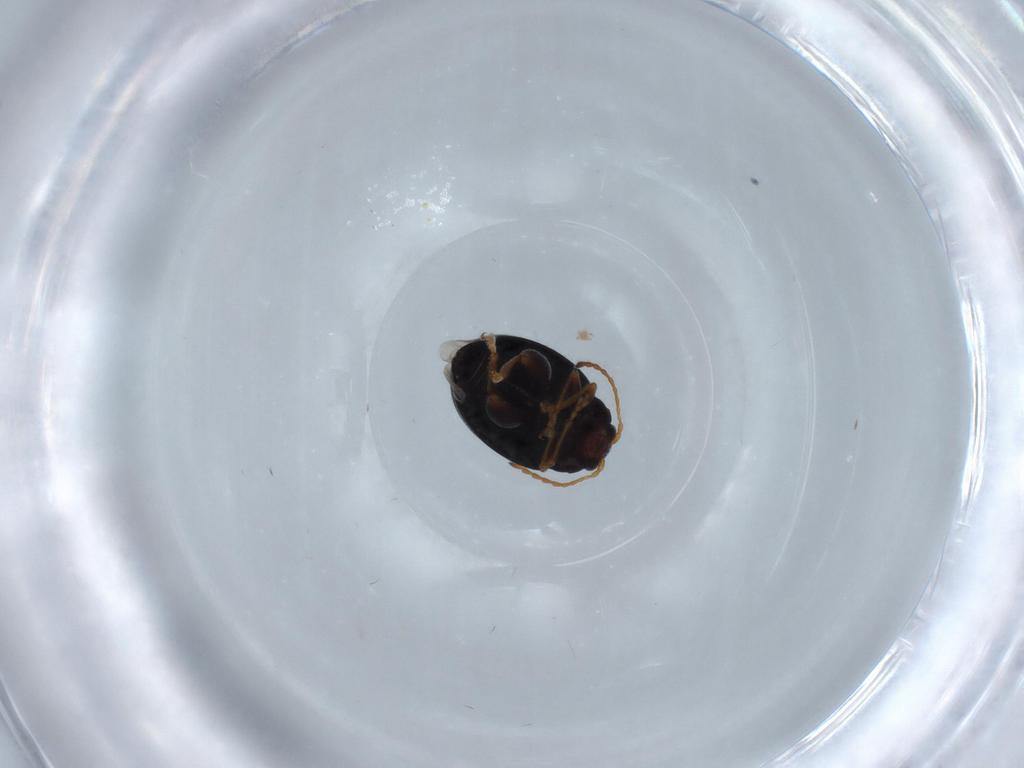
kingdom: Animalia
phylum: Arthropoda
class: Insecta
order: Coleoptera
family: Chrysomelidae
